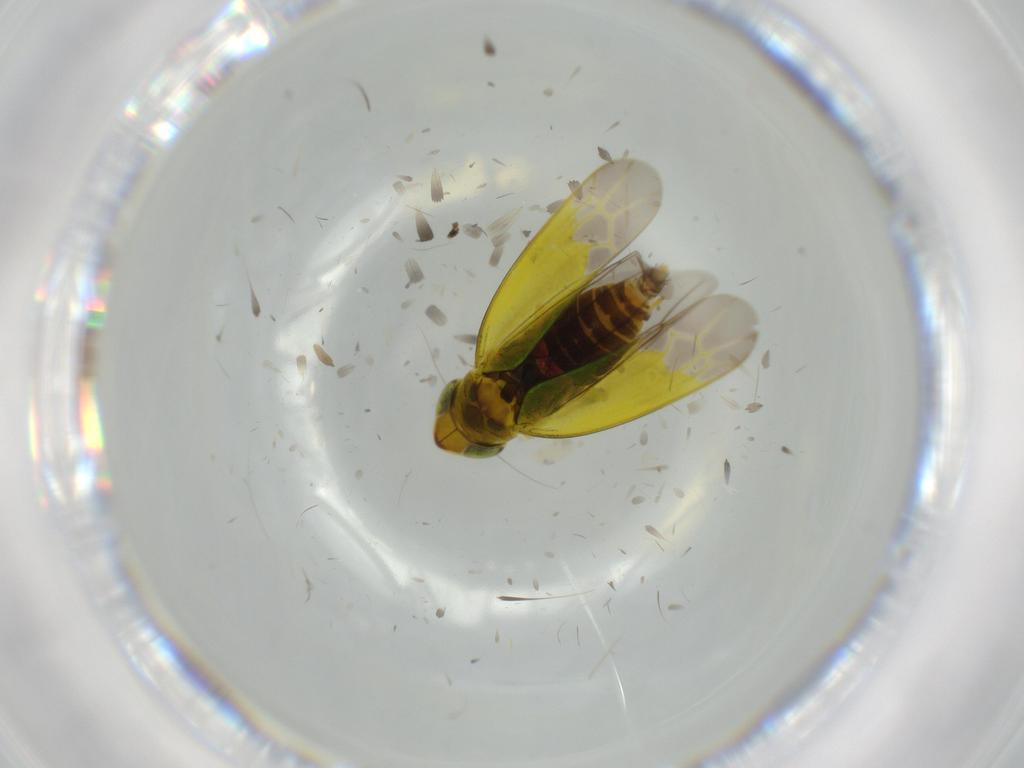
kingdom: Animalia
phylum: Arthropoda
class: Insecta
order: Hemiptera
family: Cicadellidae
